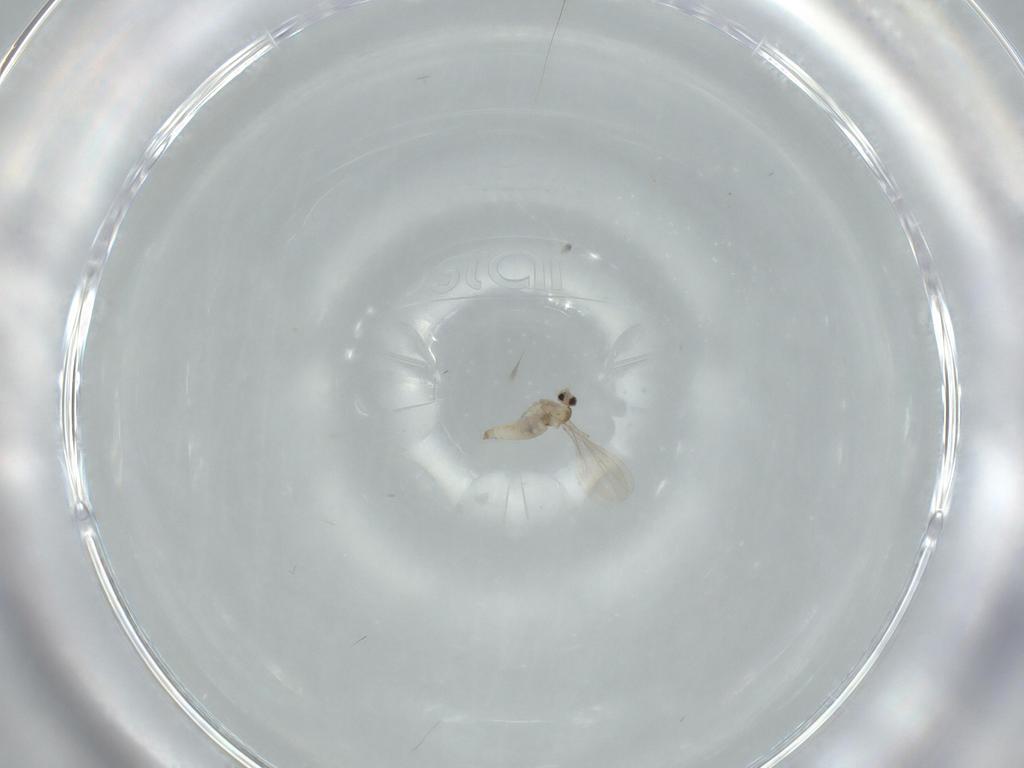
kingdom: Animalia
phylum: Arthropoda
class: Insecta
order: Diptera
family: Cecidomyiidae
